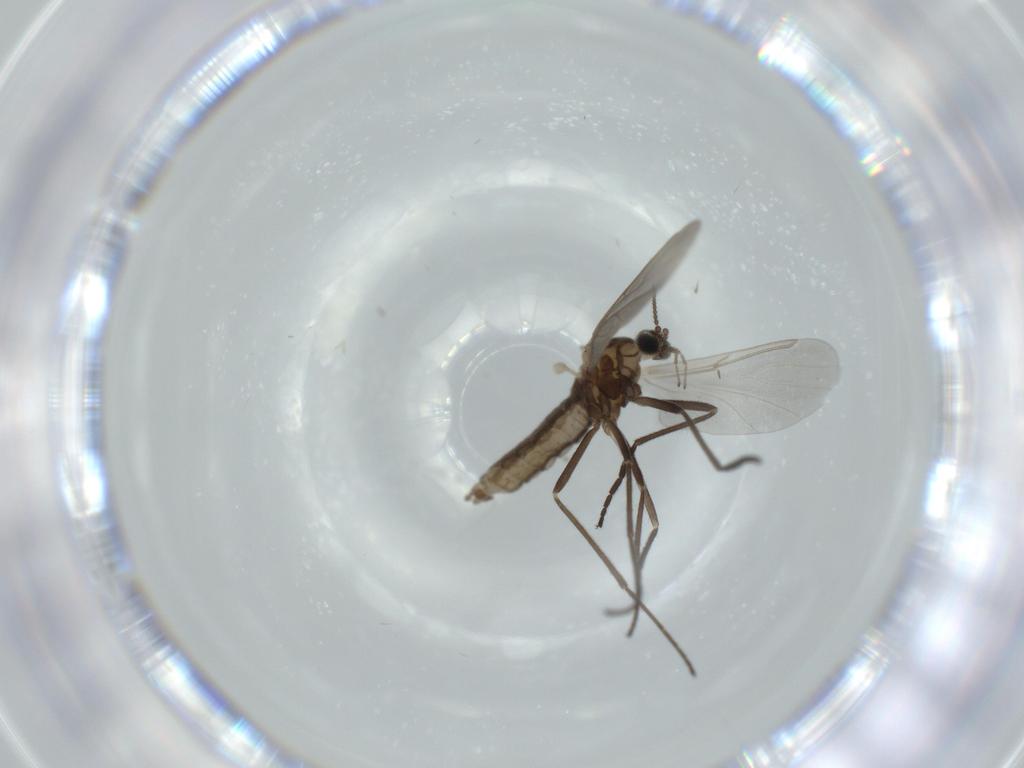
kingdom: Animalia
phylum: Arthropoda
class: Insecta
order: Diptera
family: Cecidomyiidae
